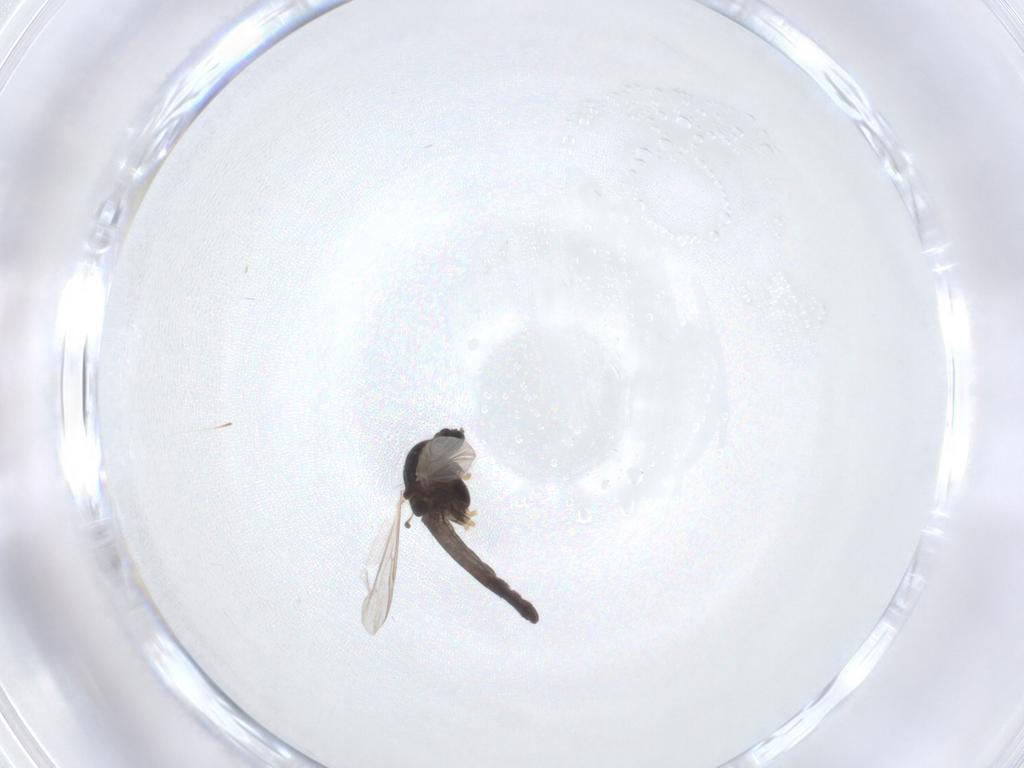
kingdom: Animalia
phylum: Arthropoda
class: Insecta
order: Diptera
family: Chironomidae
